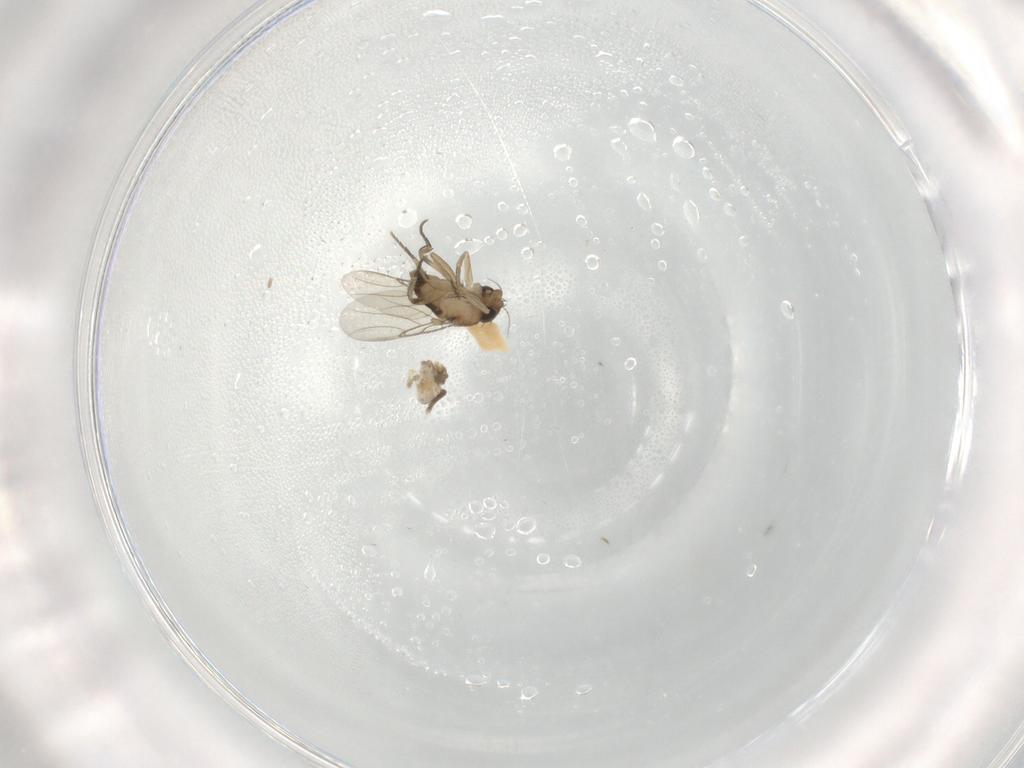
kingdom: Animalia
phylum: Arthropoda
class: Insecta
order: Diptera
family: Phoridae
